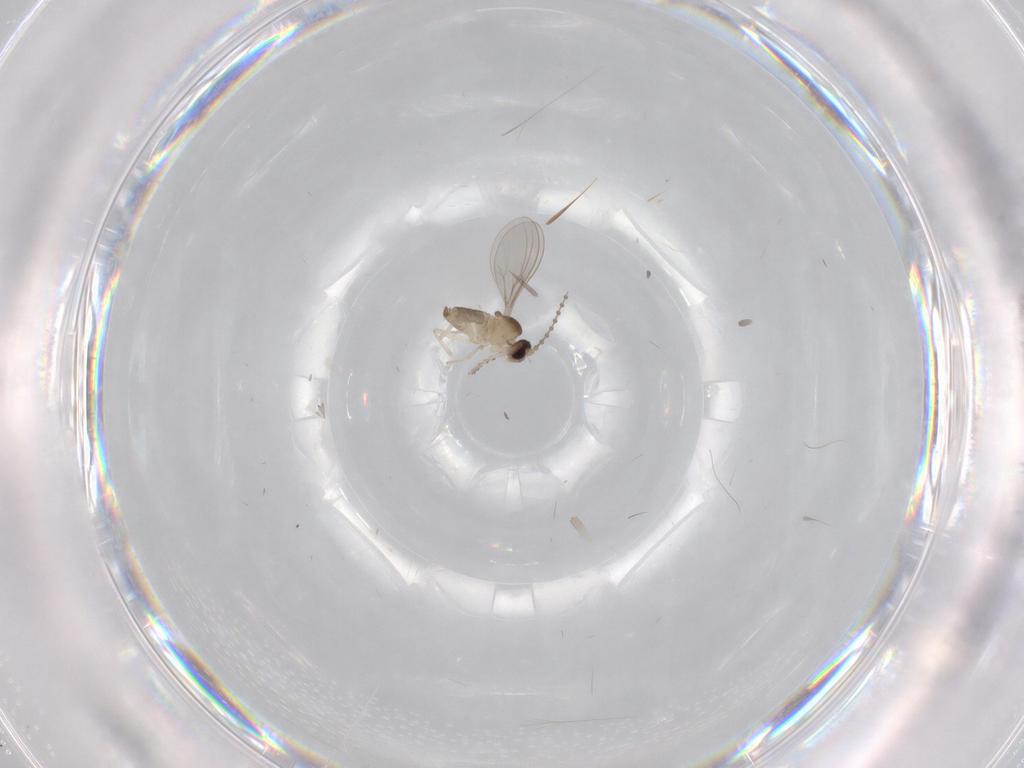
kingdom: Animalia
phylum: Arthropoda
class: Insecta
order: Diptera
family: Cecidomyiidae
